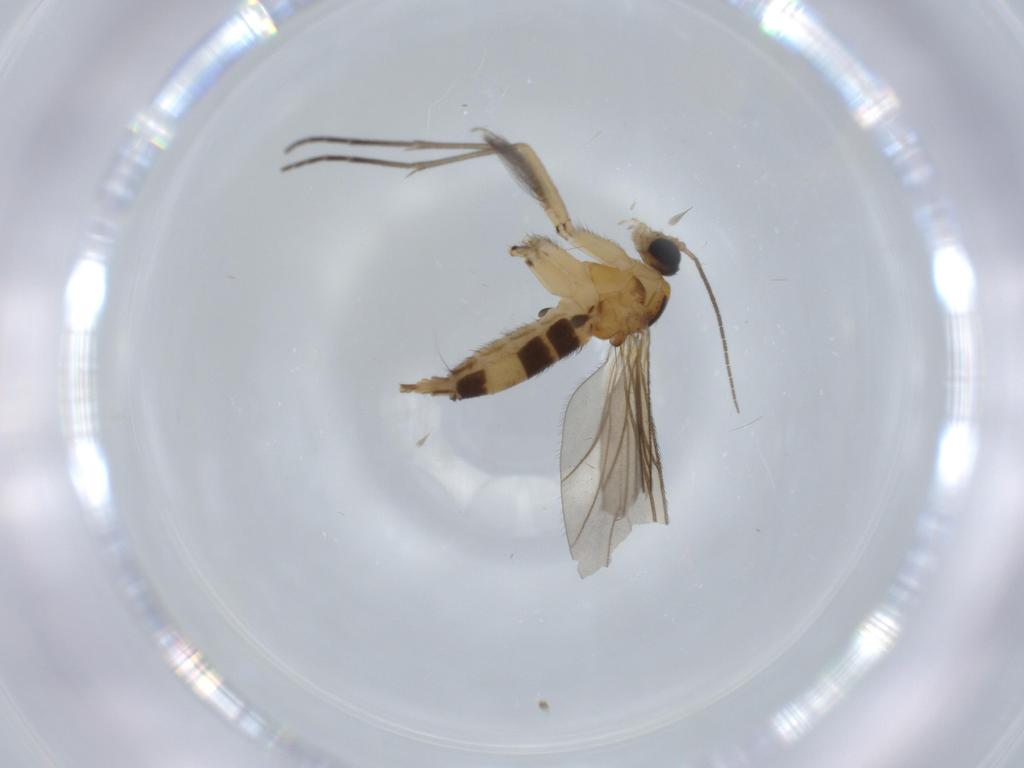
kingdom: Animalia
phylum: Arthropoda
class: Insecta
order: Diptera
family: Ceratopogonidae
